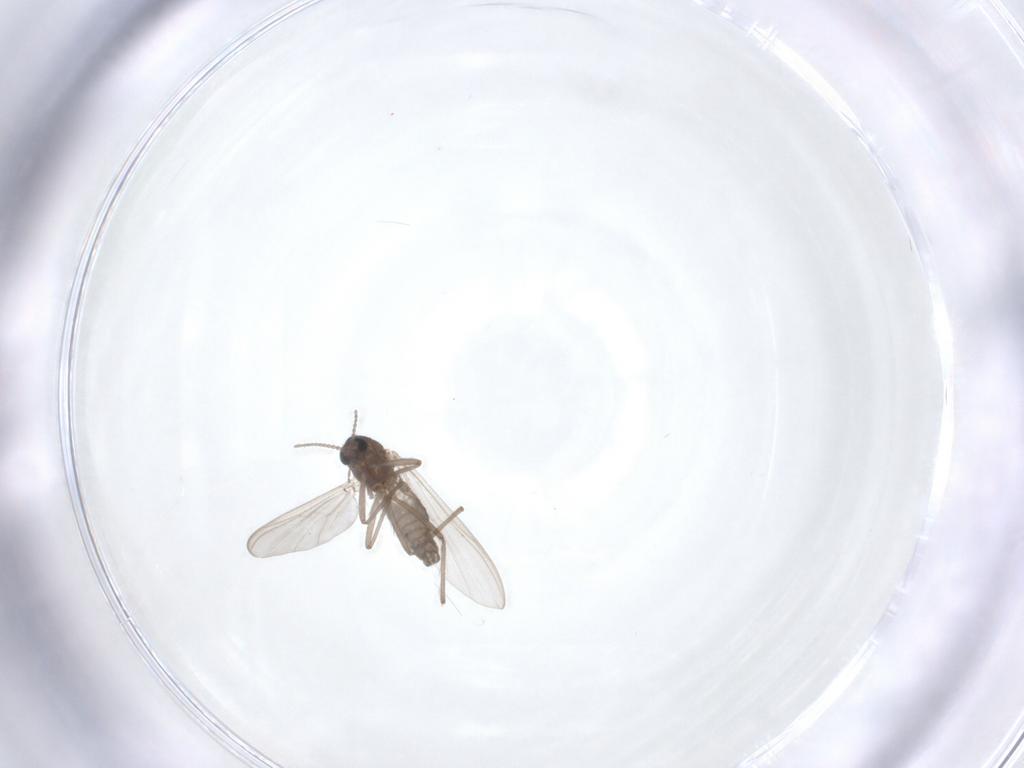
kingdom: Animalia
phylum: Arthropoda
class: Insecta
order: Diptera
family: Chironomidae
